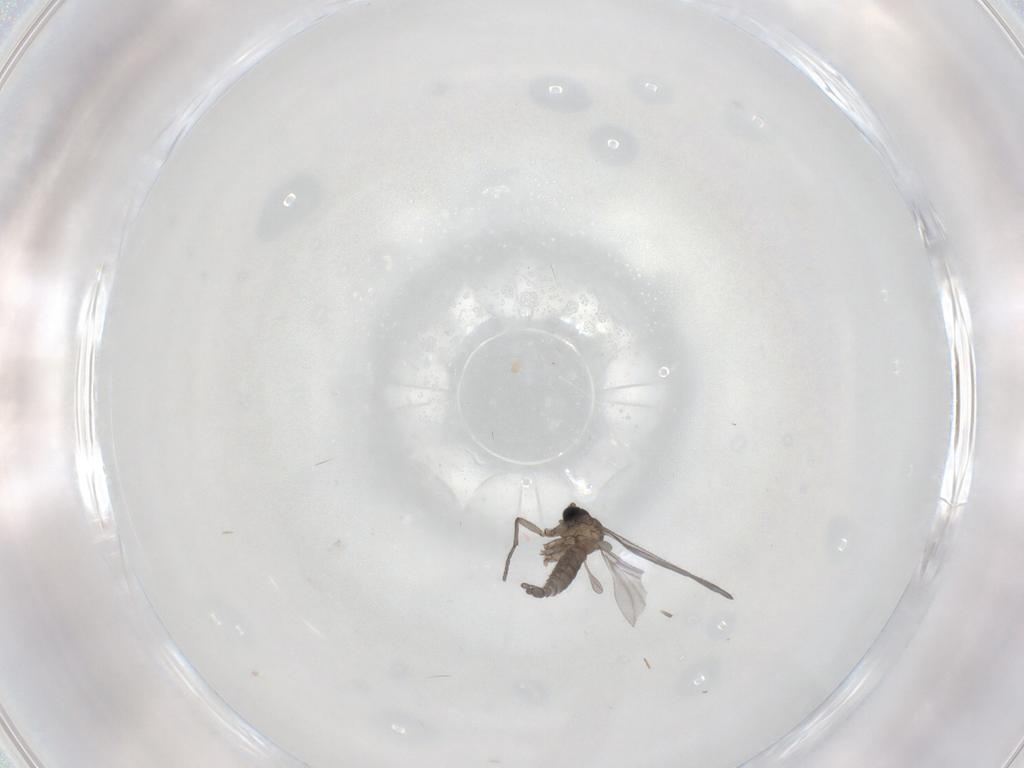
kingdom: Animalia
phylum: Arthropoda
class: Insecta
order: Diptera
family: Sciaridae
